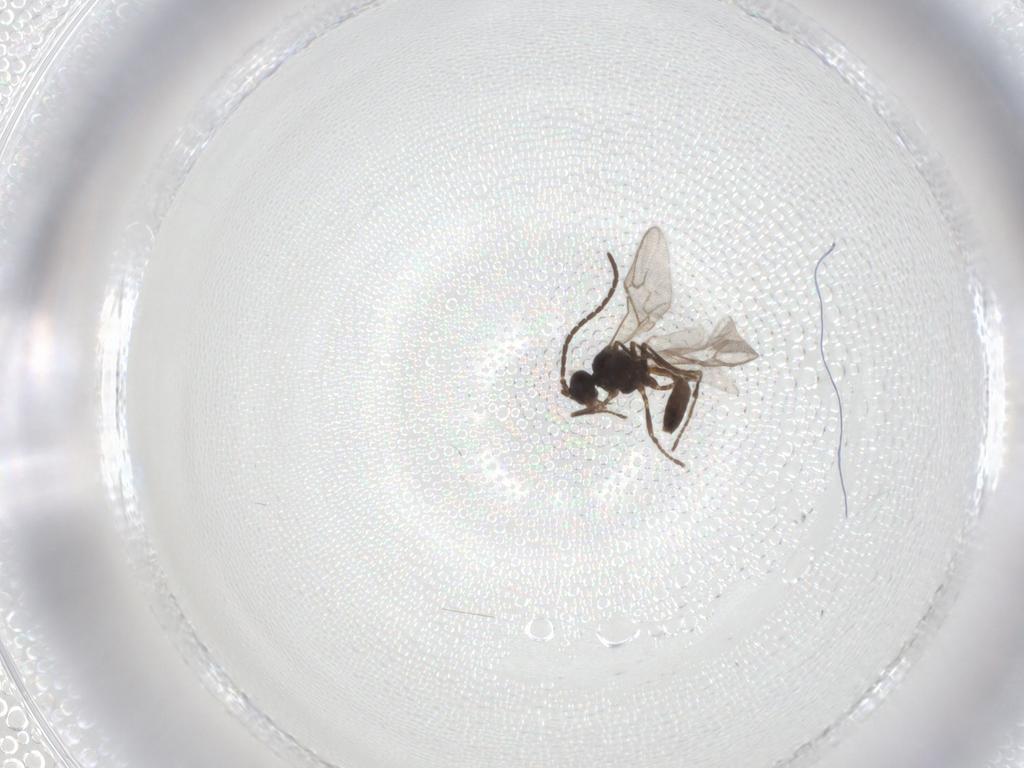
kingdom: Animalia
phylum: Arthropoda
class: Insecta
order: Hymenoptera
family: Braconidae
